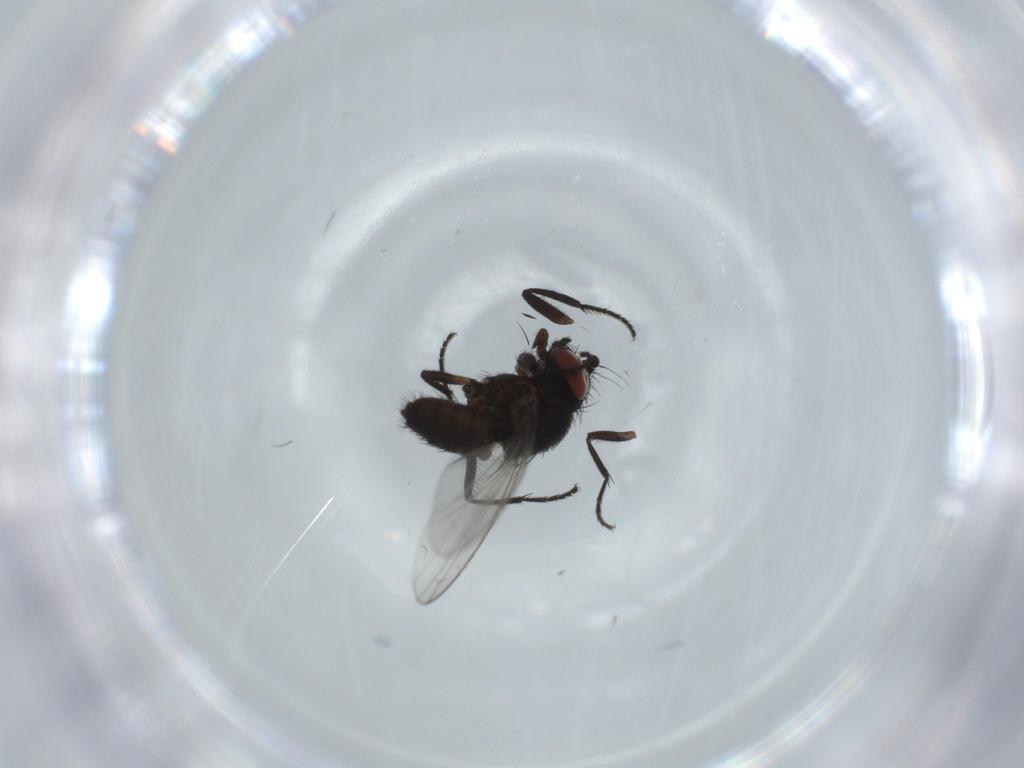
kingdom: Animalia
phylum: Arthropoda
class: Insecta
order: Diptera
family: Milichiidae
